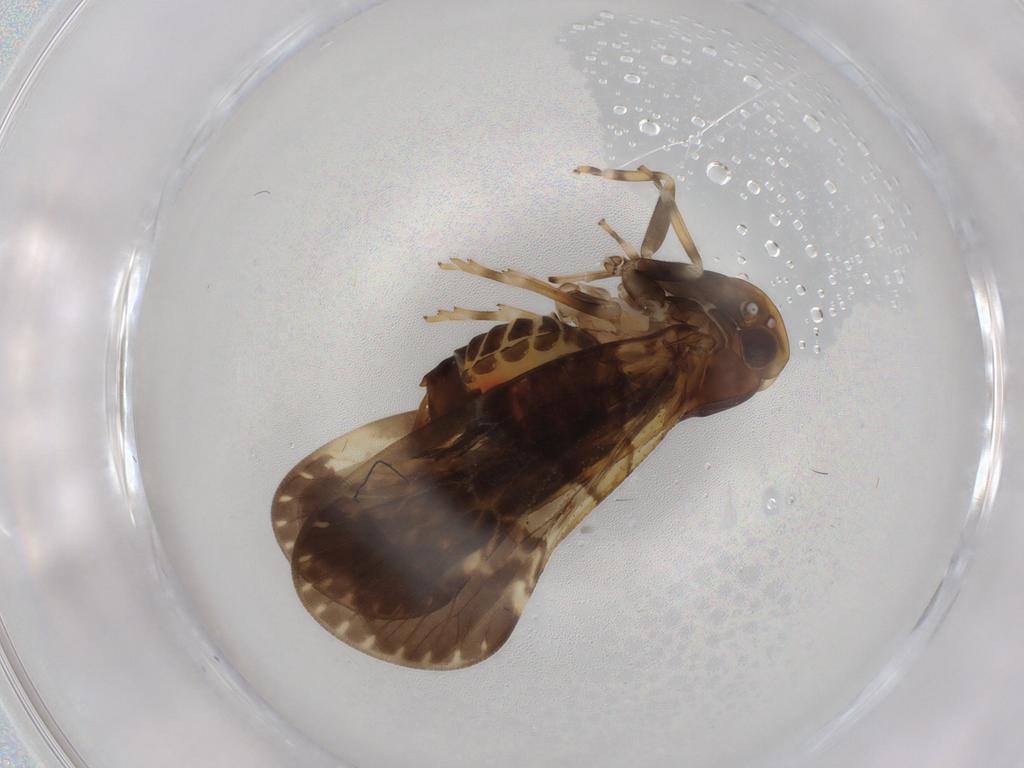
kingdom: Animalia
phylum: Arthropoda
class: Insecta
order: Hemiptera
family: Cixiidae
